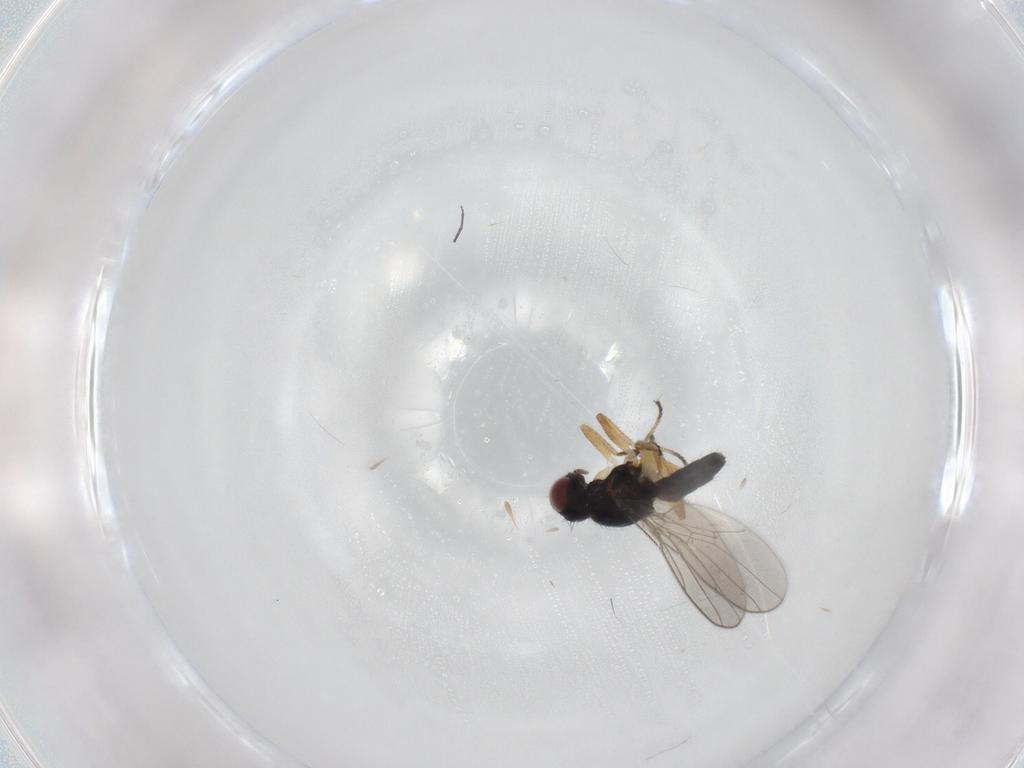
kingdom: Animalia
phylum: Arthropoda
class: Insecta
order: Diptera
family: Chloropidae
